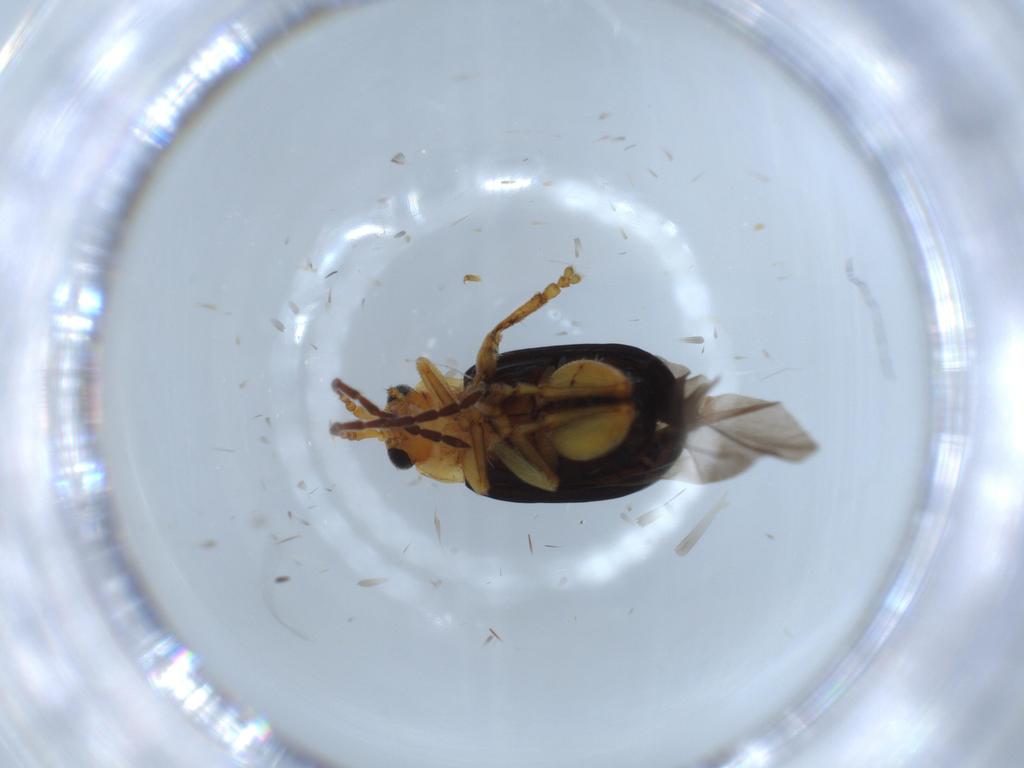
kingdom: Animalia
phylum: Arthropoda
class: Insecta
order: Coleoptera
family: Chrysomelidae
